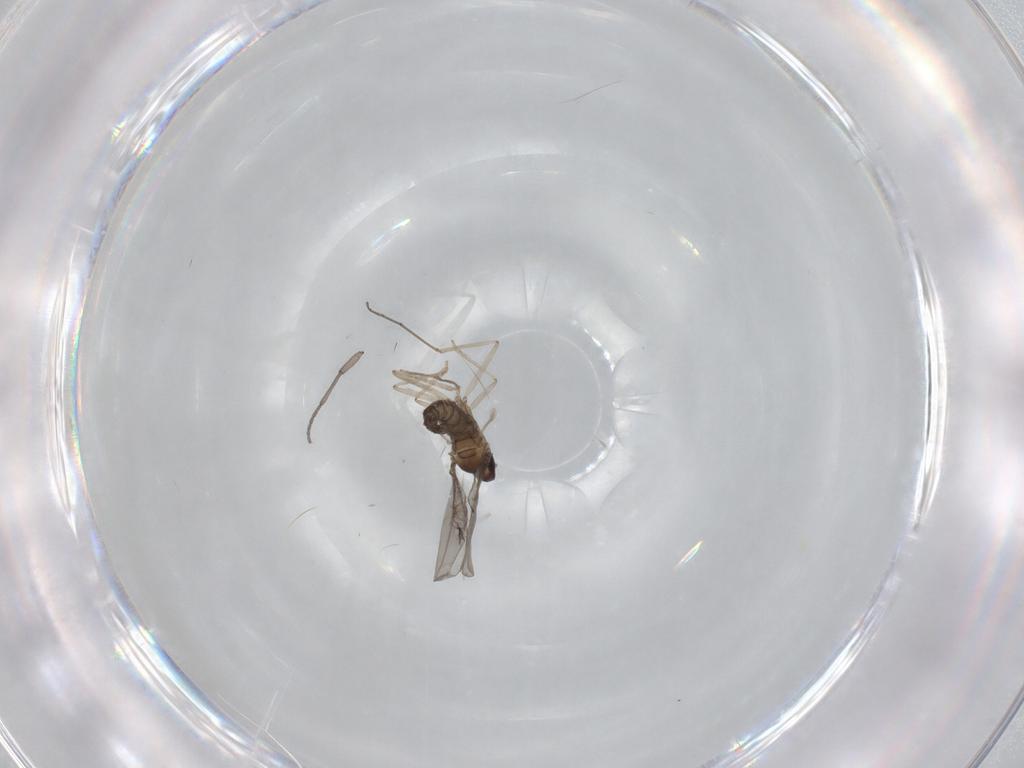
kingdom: Animalia
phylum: Arthropoda
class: Insecta
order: Diptera
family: Cecidomyiidae
